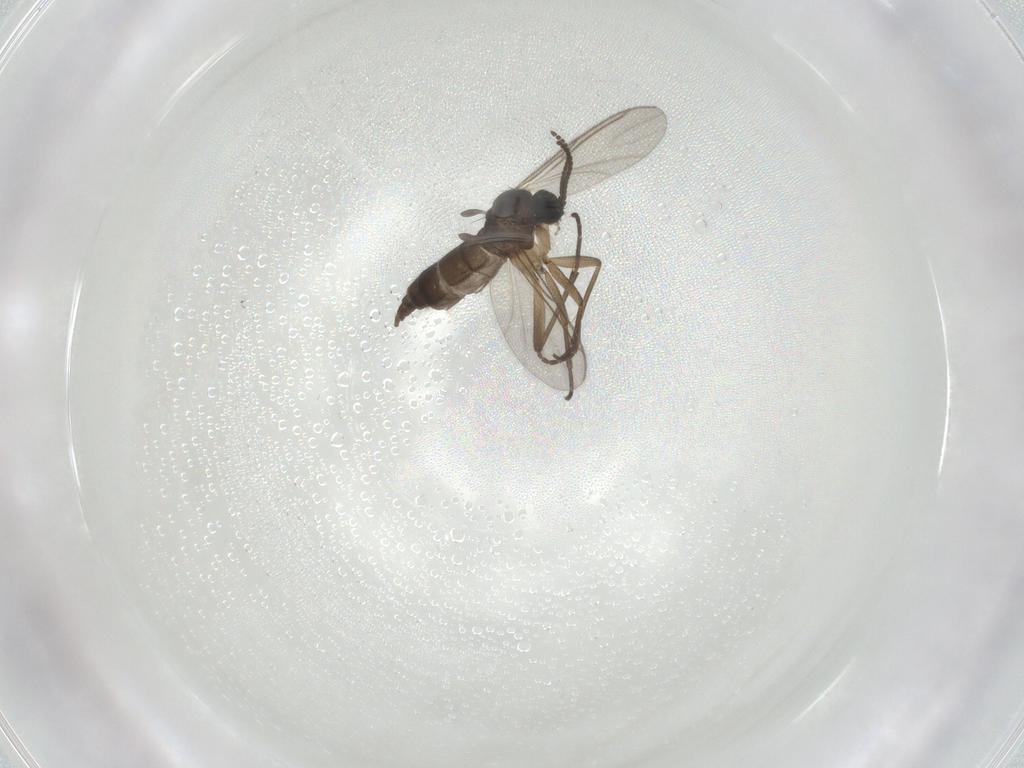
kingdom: Animalia
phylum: Arthropoda
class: Insecta
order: Diptera
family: Sciaridae
